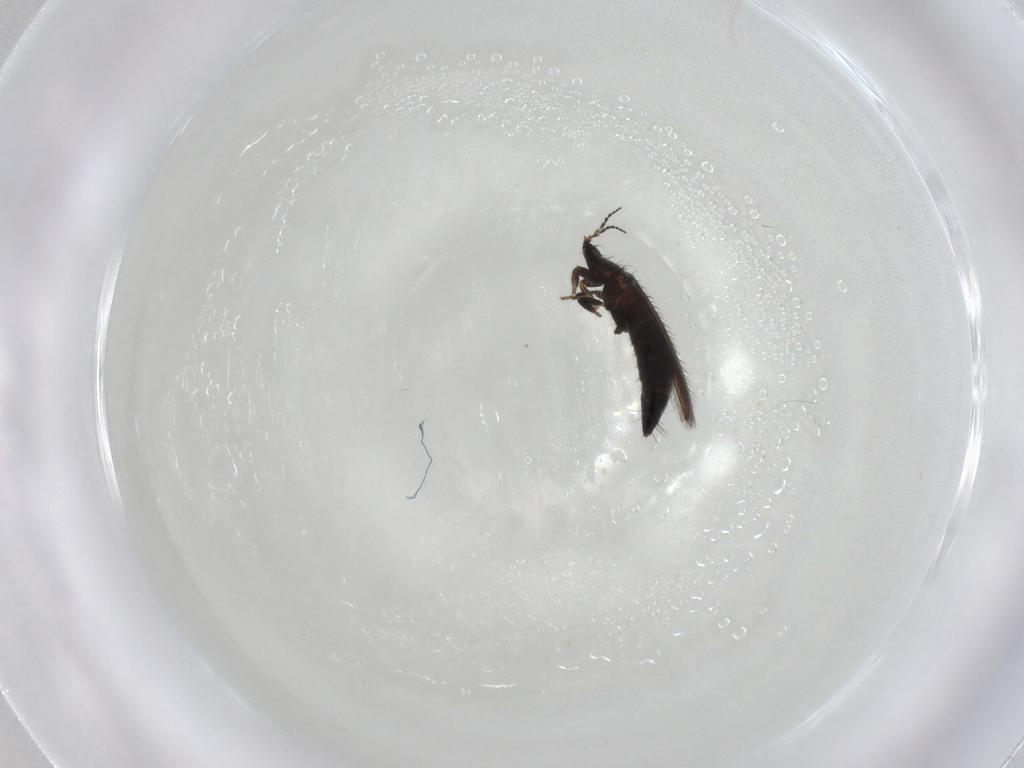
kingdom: Animalia
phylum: Arthropoda
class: Insecta
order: Thysanoptera
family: Melanthripidae
